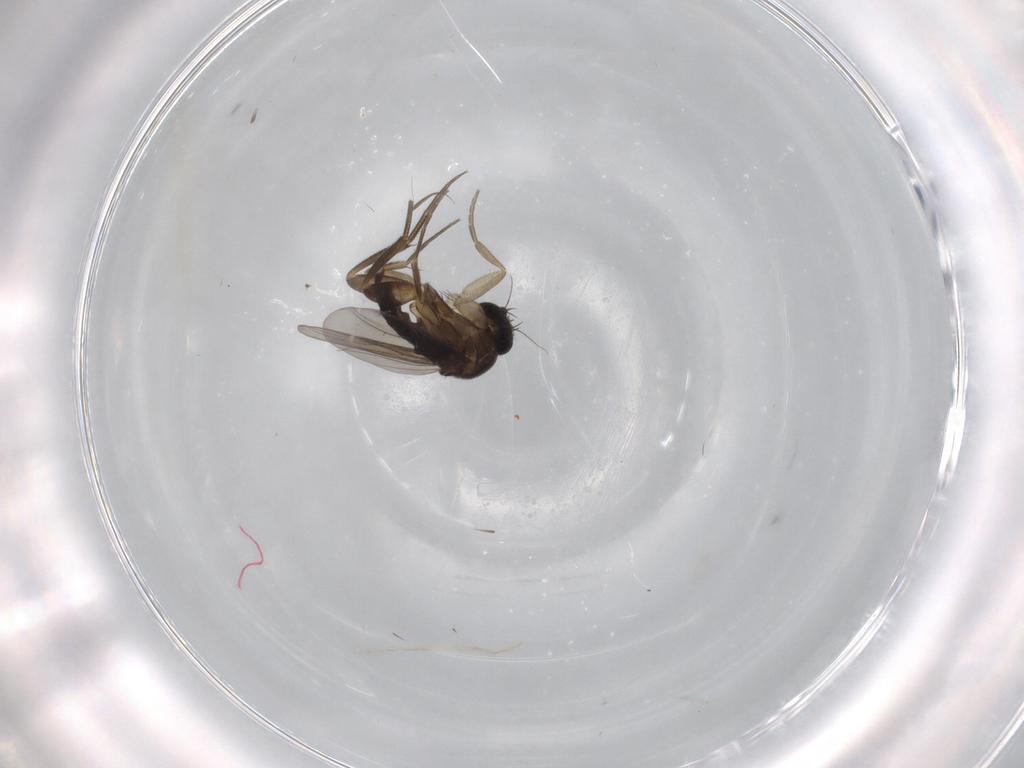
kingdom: Animalia
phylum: Arthropoda
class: Insecta
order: Diptera
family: Phoridae
